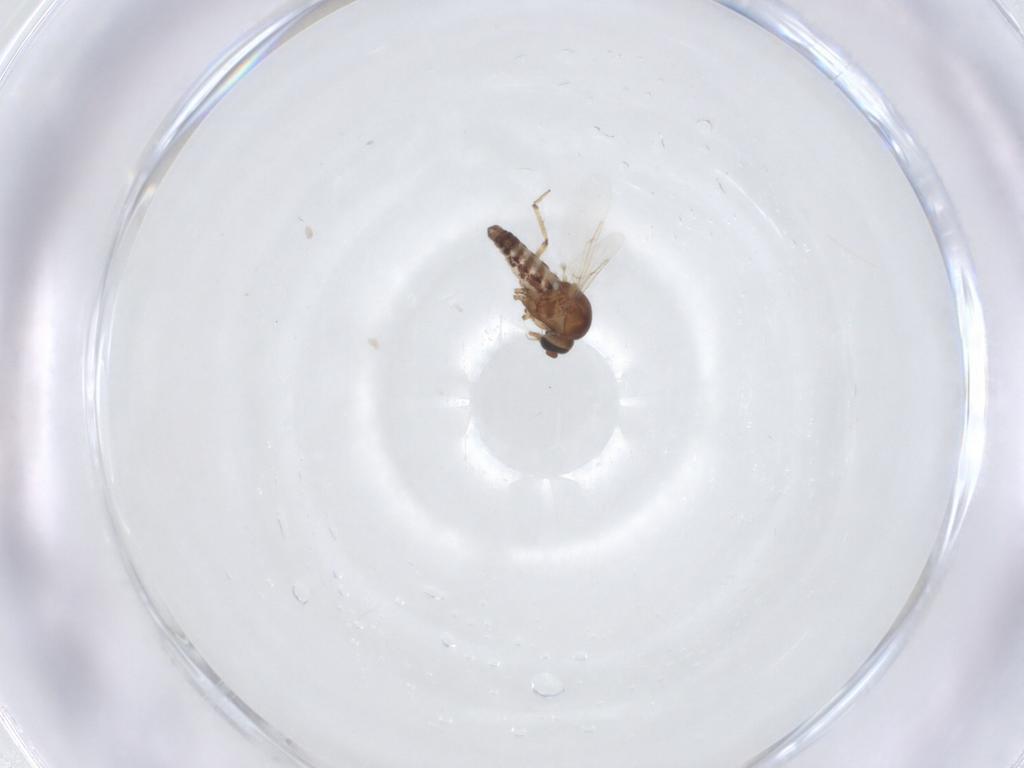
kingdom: Animalia
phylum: Arthropoda
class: Insecta
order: Diptera
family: Ceratopogonidae
